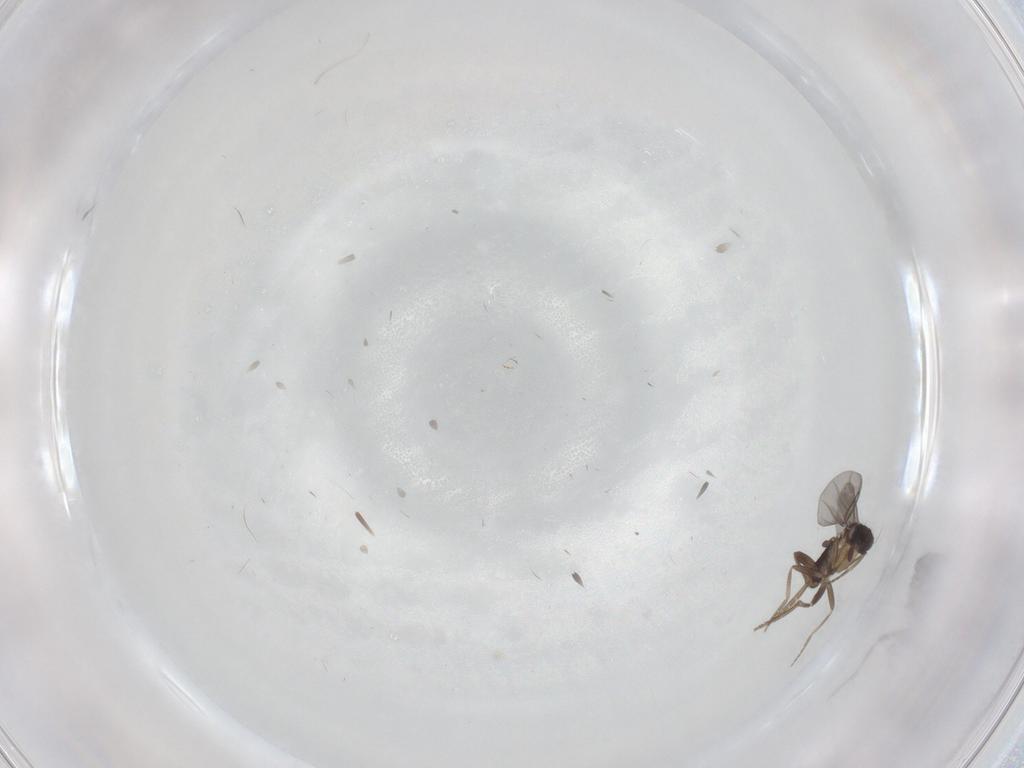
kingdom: Animalia
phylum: Arthropoda
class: Insecta
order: Diptera
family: Phoridae
